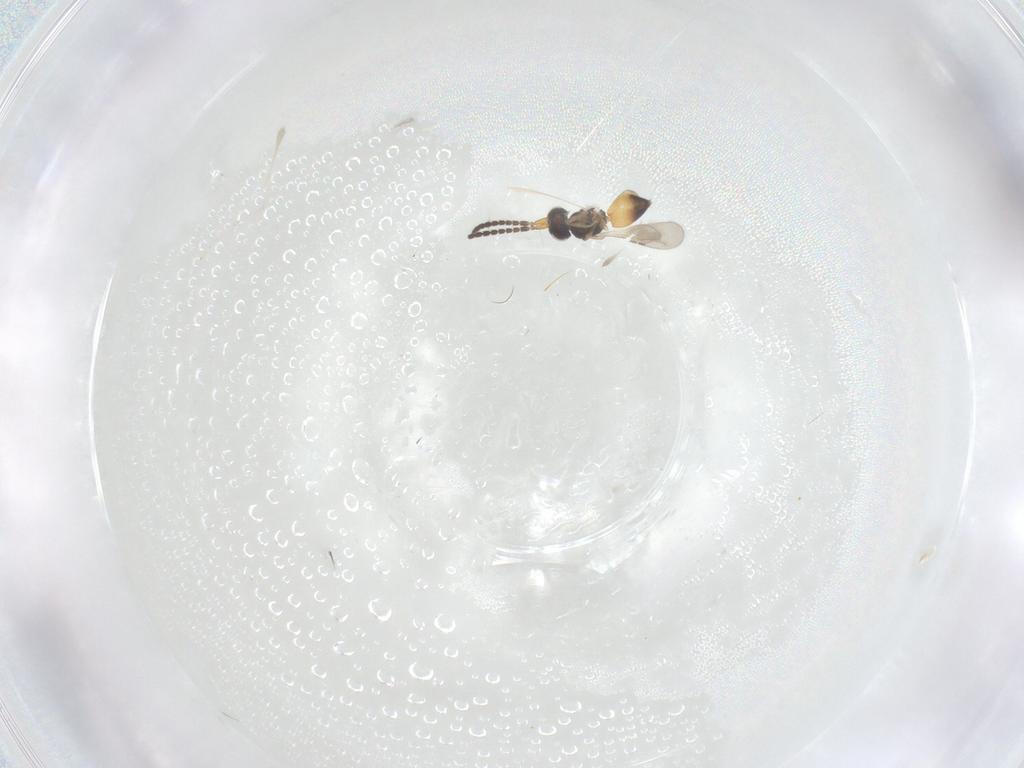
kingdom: Animalia
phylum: Arthropoda
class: Insecta
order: Hymenoptera
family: Ceraphronidae
